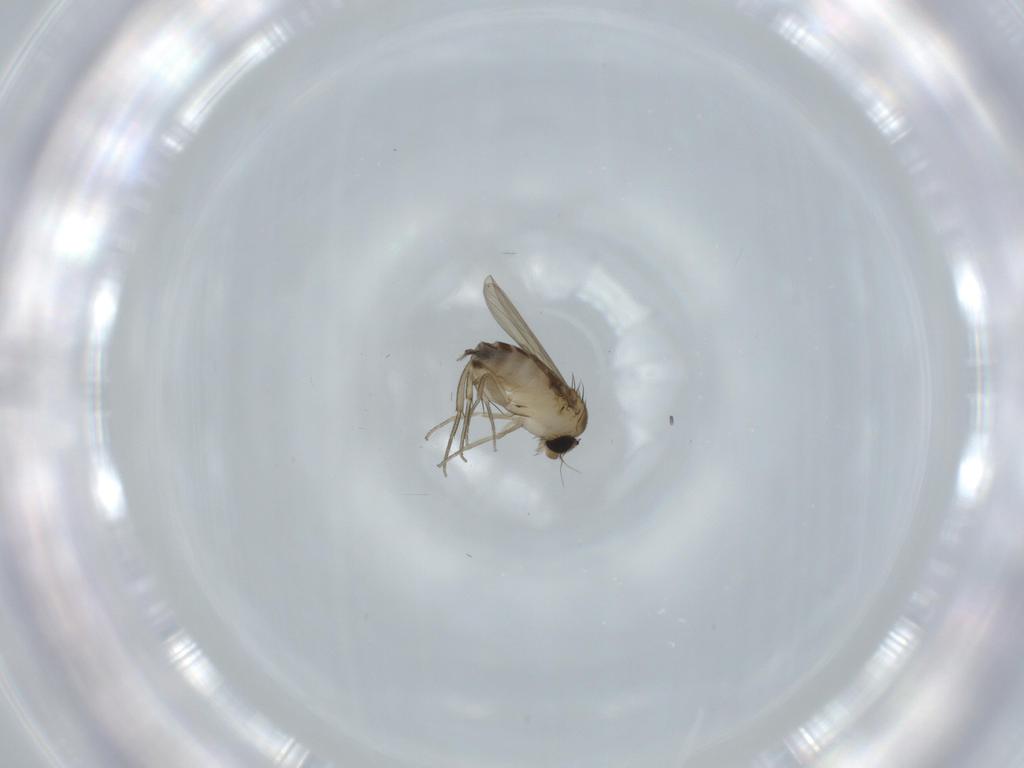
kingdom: Animalia
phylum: Arthropoda
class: Insecta
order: Diptera
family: Phoridae
